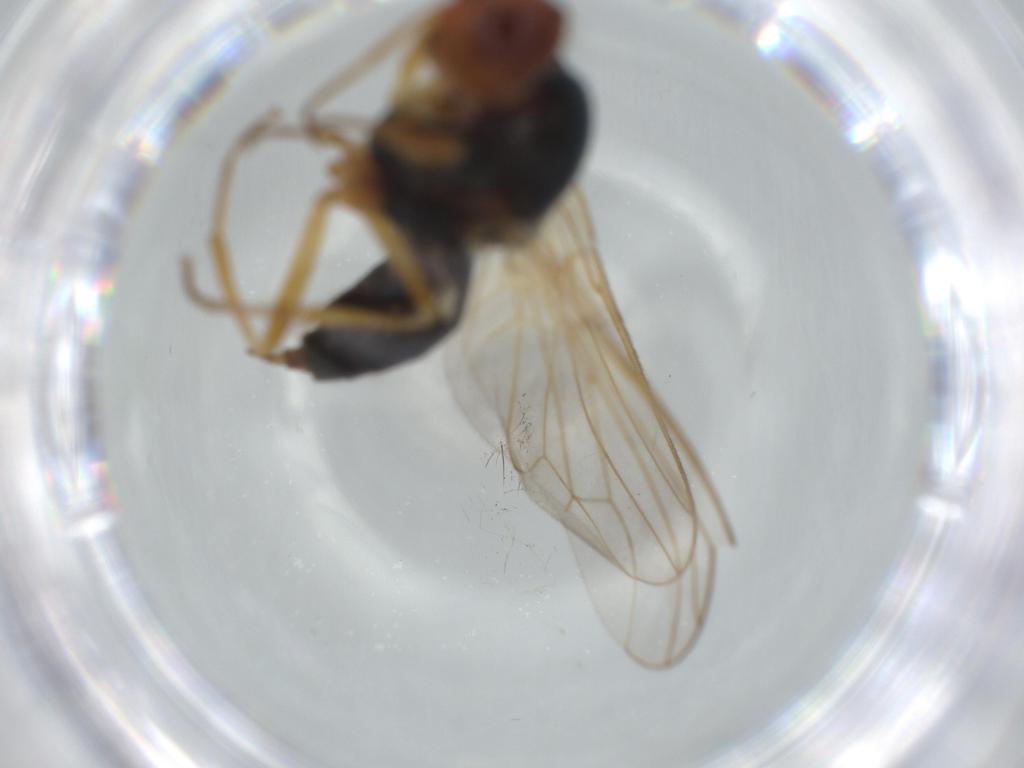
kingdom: Animalia
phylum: Arthropoda
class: Insecta
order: Diptera
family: Psilidae
